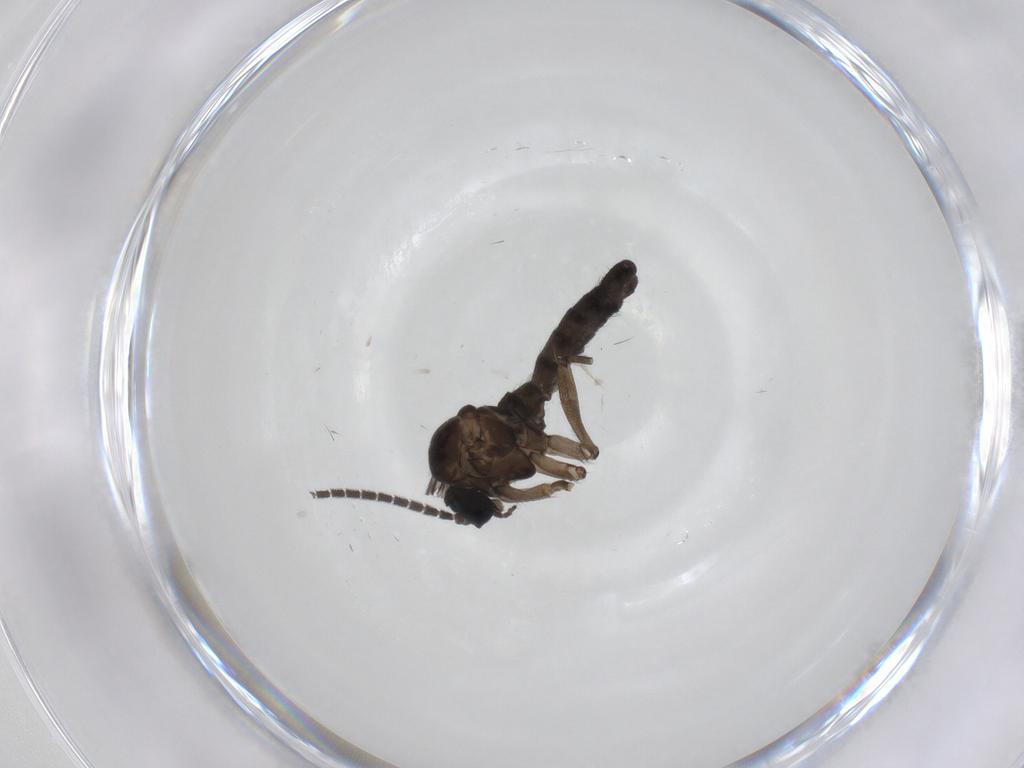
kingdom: Animalia
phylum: Arthropoda
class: Insecta
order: Diptera
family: Sciaridae
